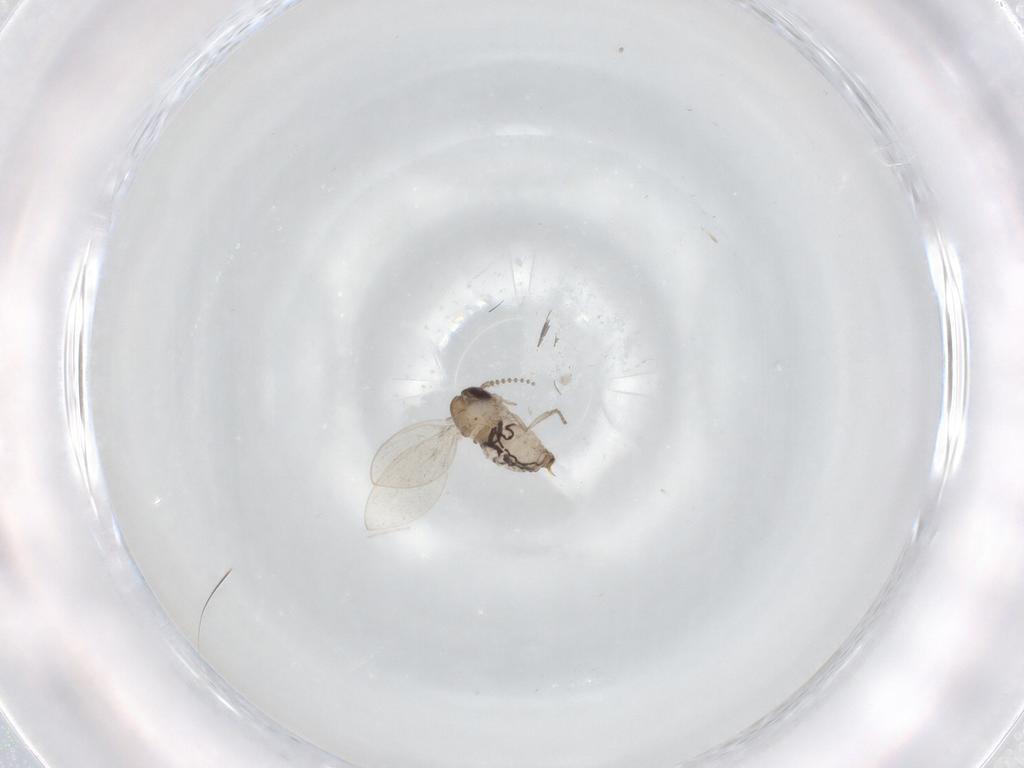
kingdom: Animalia
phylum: Arthropoda
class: Insecta
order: Diptera
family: Psychodidae
